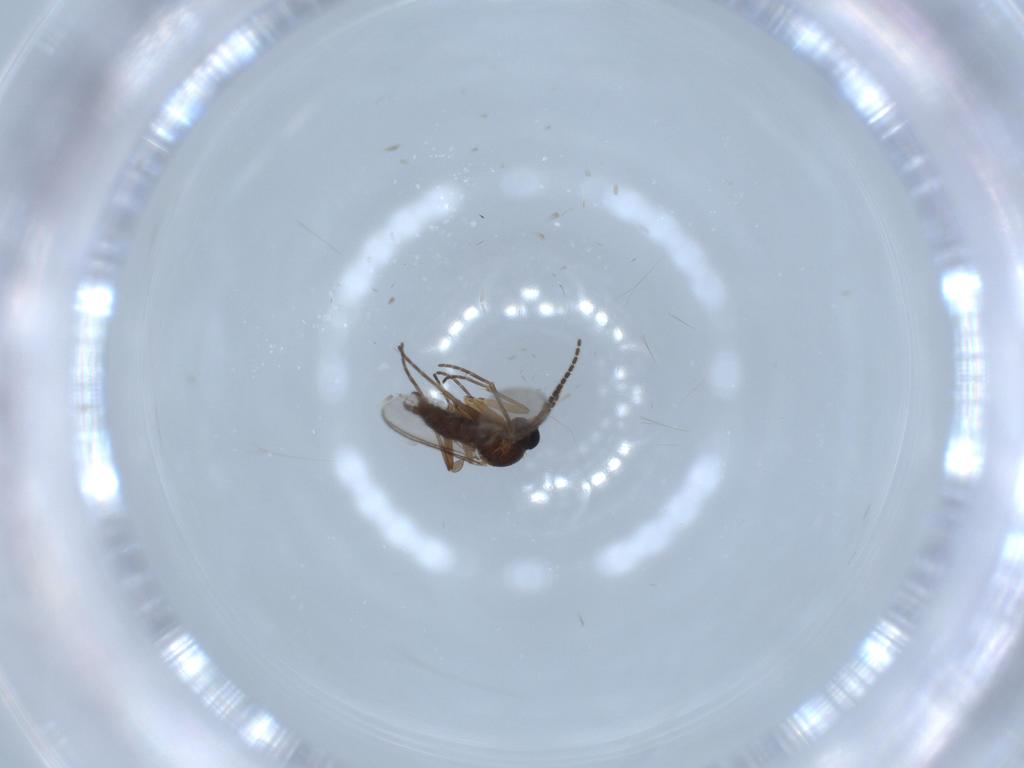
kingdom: Animalia
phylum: Arthropoda
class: Insecta
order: Diptera
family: Sciaridae
